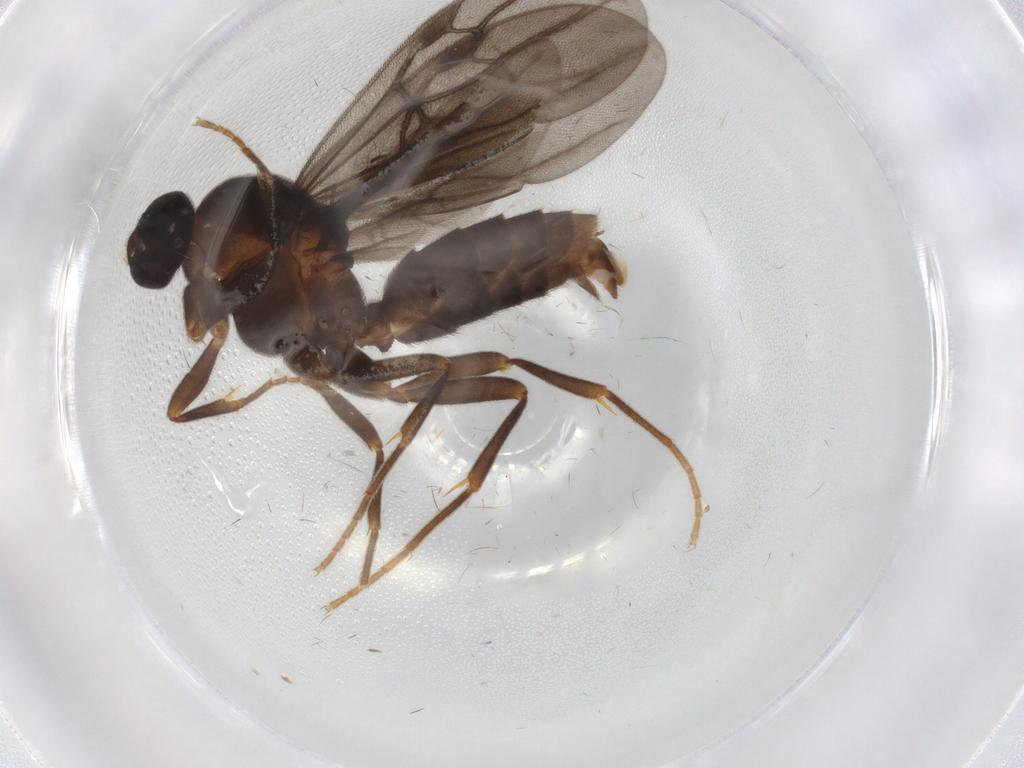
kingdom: Animalia
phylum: Arthropoda
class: Insecta
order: Hymenoptera
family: Formicidae
